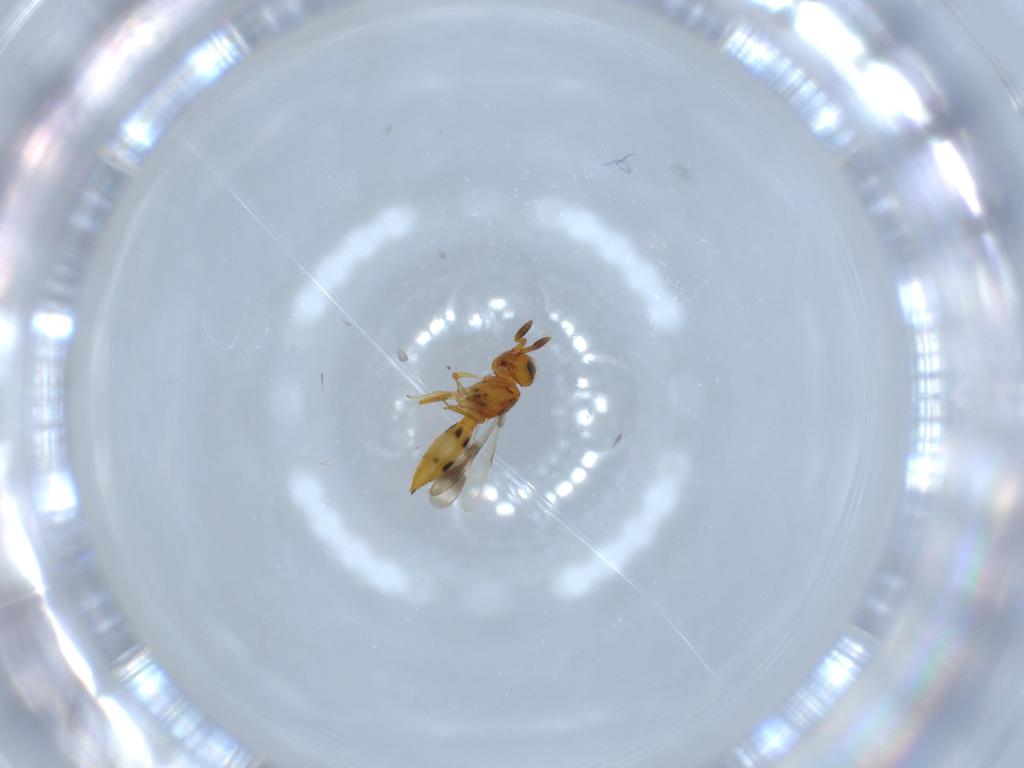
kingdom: Animalia
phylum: Arthropoda
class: Insecta
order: Hymenoptera
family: Scelionidae
